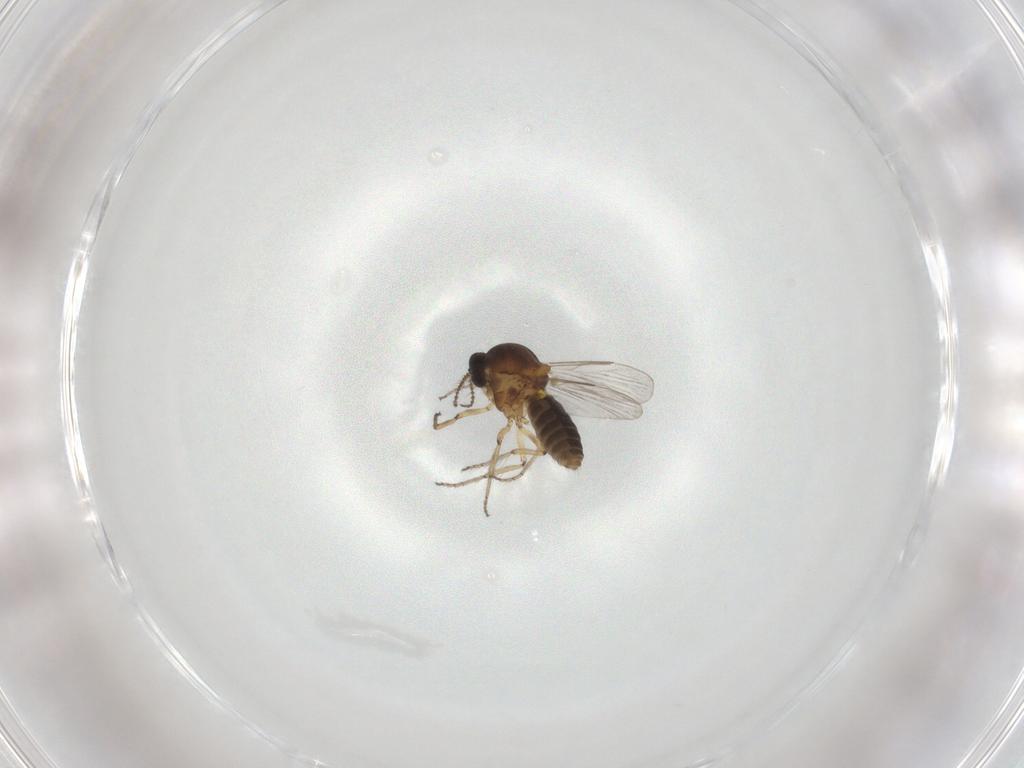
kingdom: Animalia
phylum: Arthropoda
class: Insecta
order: Diptera
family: Ceratopogonidae
